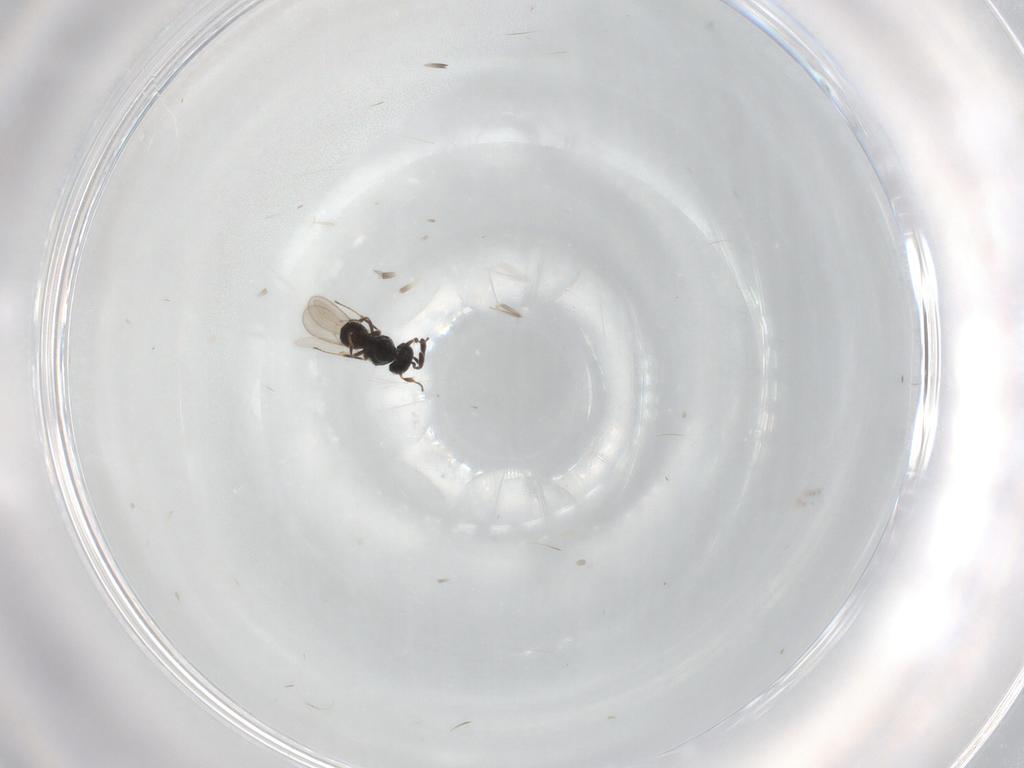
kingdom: Animalia
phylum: Arthropoda
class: Insecta
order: Hymenoptera
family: Scelionidae
